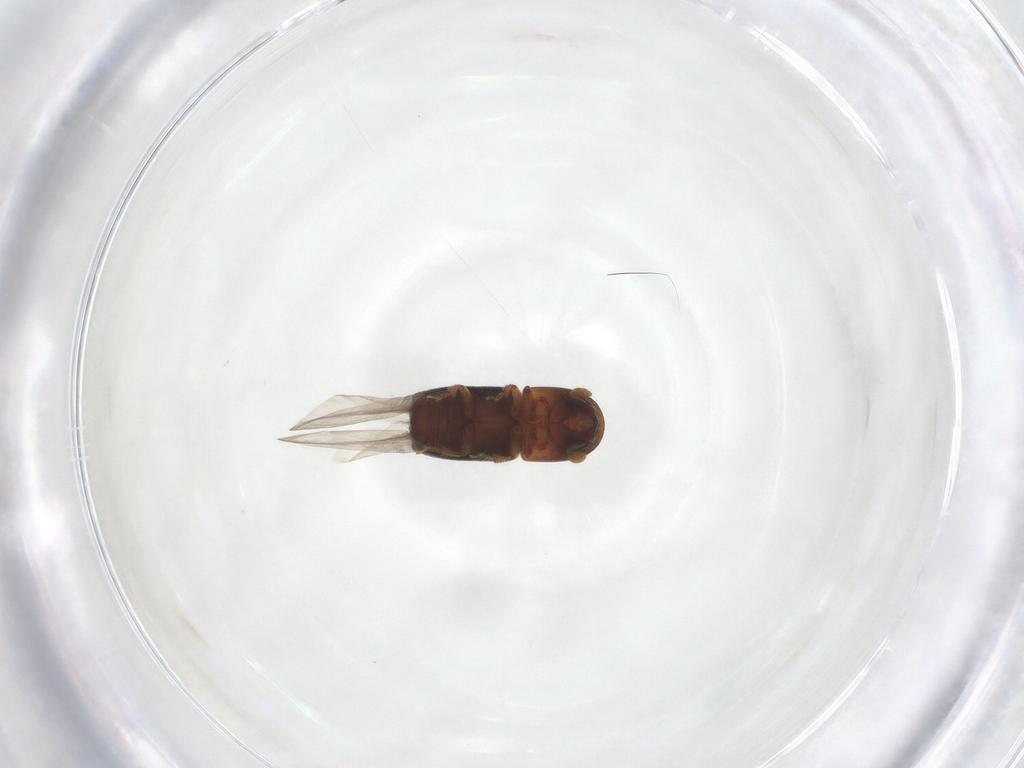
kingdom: Animalia
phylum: Arthropoda
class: Insecta
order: Coleoptera
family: Curculionidae
